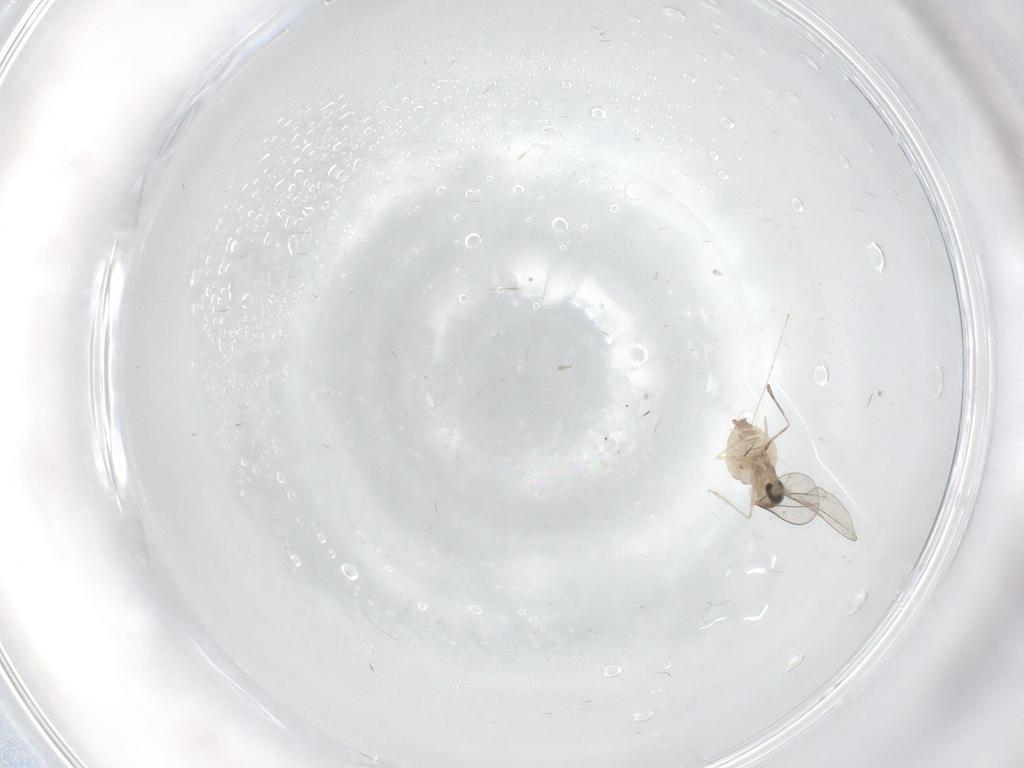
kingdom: Animalia
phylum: Arthropoda
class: Insecta
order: Diptera
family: Cecidomyiidae
